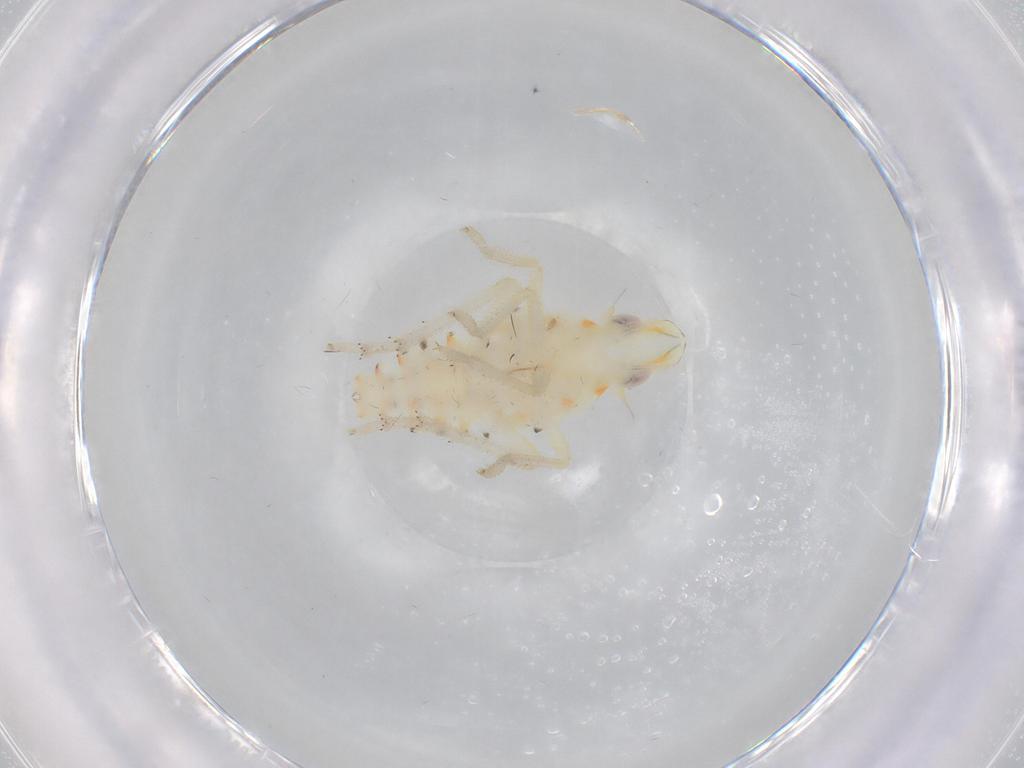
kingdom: Animalia
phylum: Arthropoda
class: Insecta
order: Hemiptera
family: Tropiduchidae
